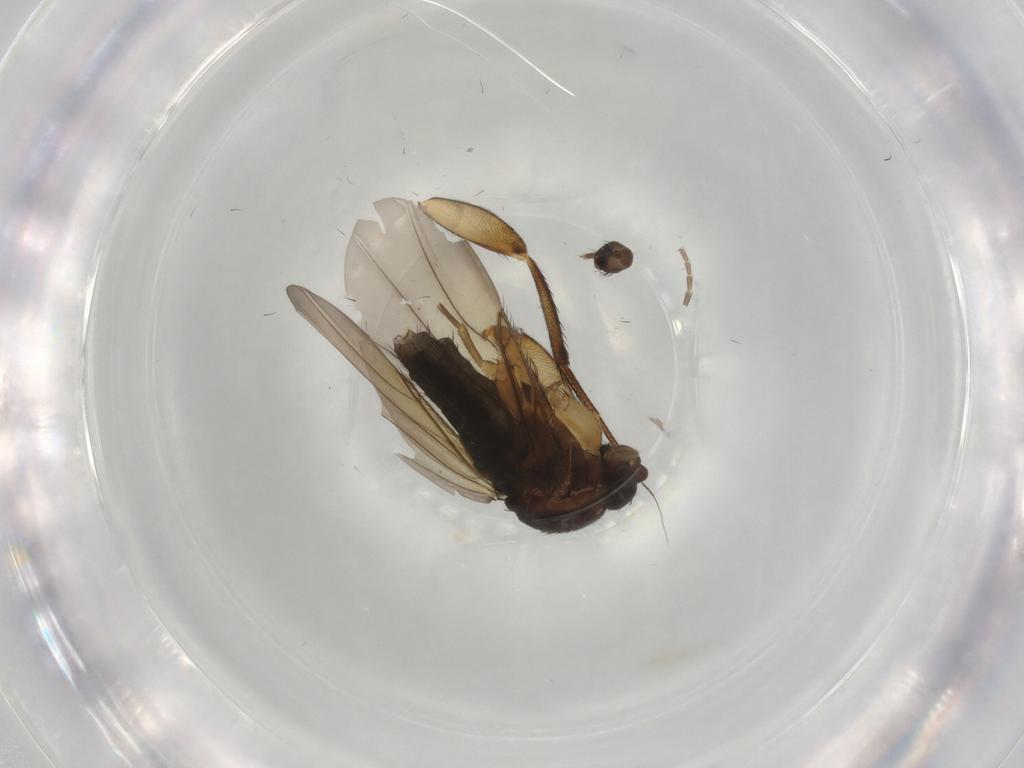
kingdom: Animalia
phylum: Arthropoda
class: Insecta
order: Diptera
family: Phoridae
